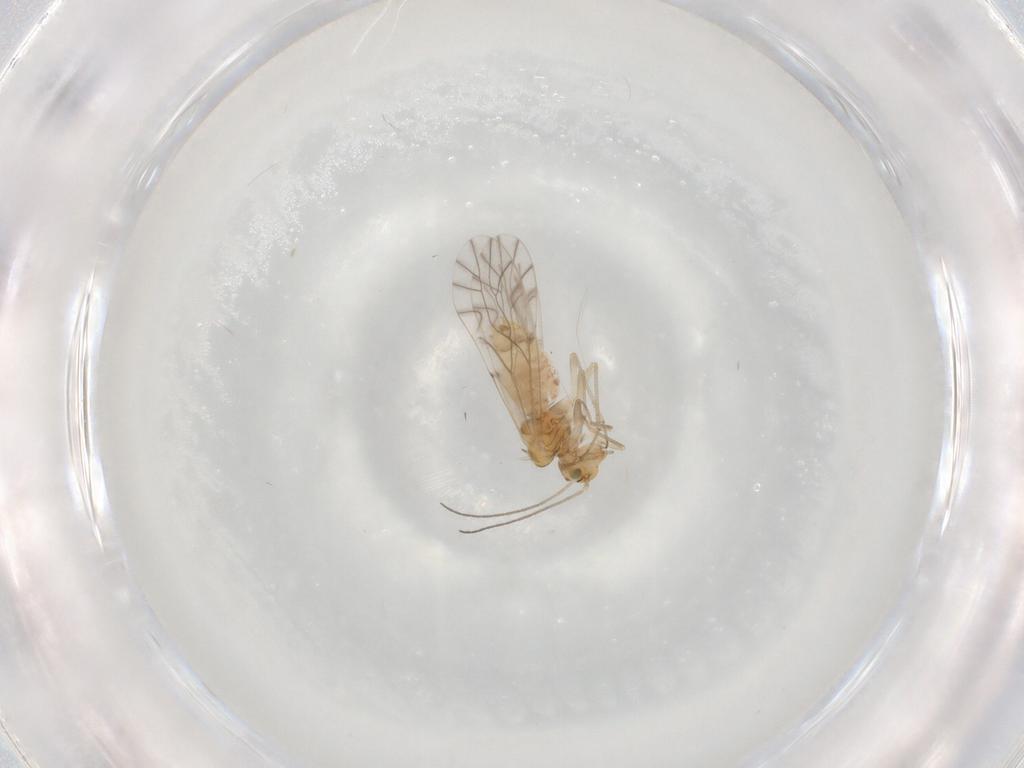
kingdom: Animalia
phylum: Arthropoda
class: Insecta
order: Psocodea
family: Lachesillidae
